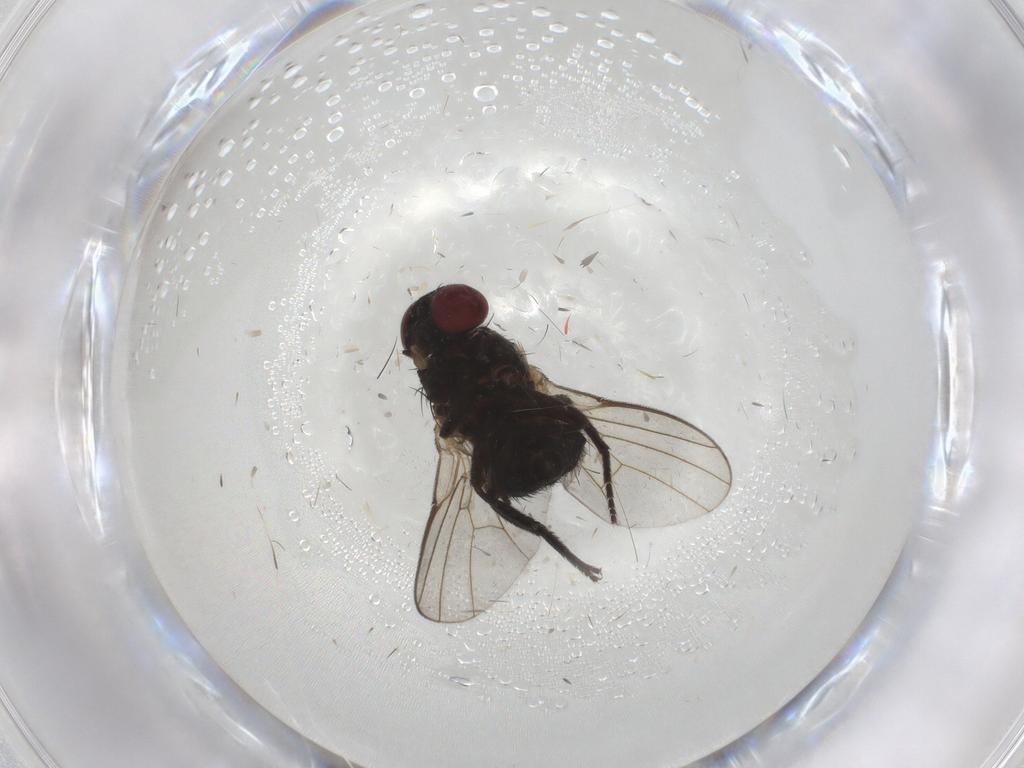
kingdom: Animalia
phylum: Arthropoda
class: Insecta
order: Diptera
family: Agromyzidae
